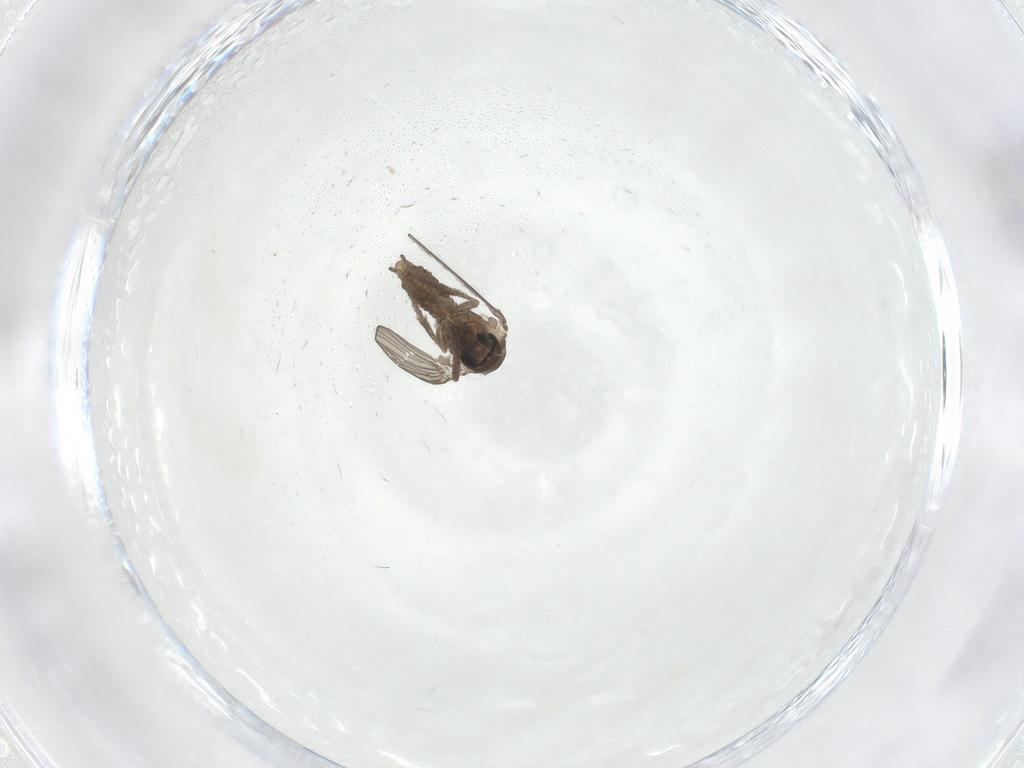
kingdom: Animalia
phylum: Arthropoda
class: Insecta
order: Diptera
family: Psychodidae
